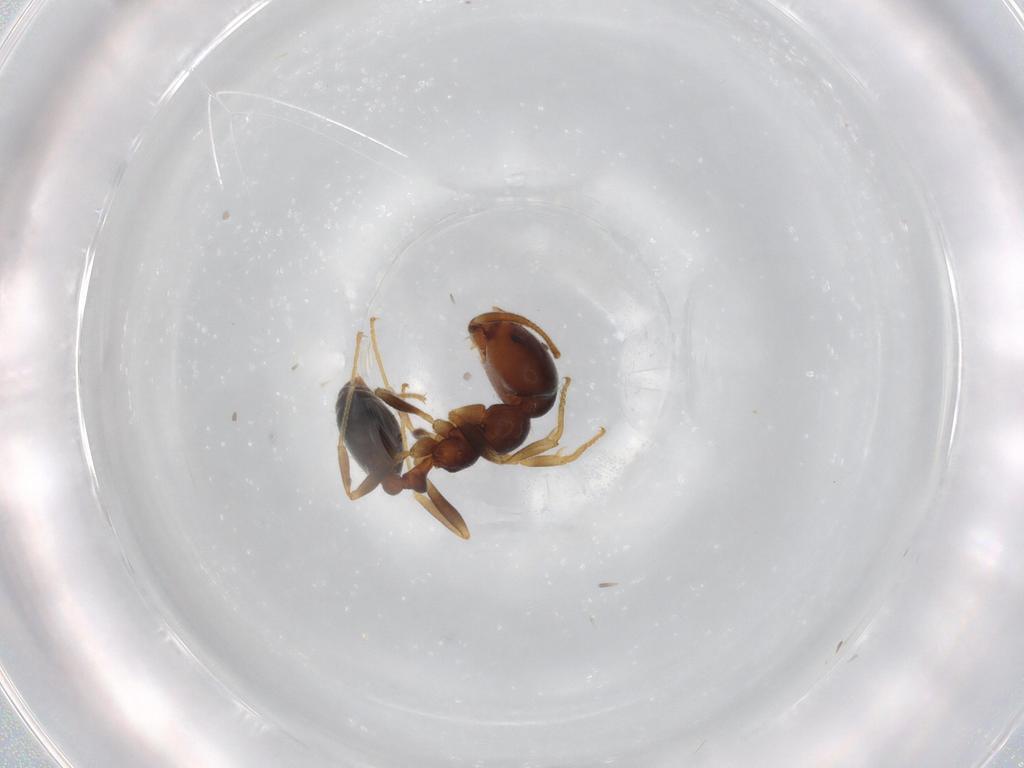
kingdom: Animalia
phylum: Arthropoda
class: Insecta
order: Hymenoptera
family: Formicidae
